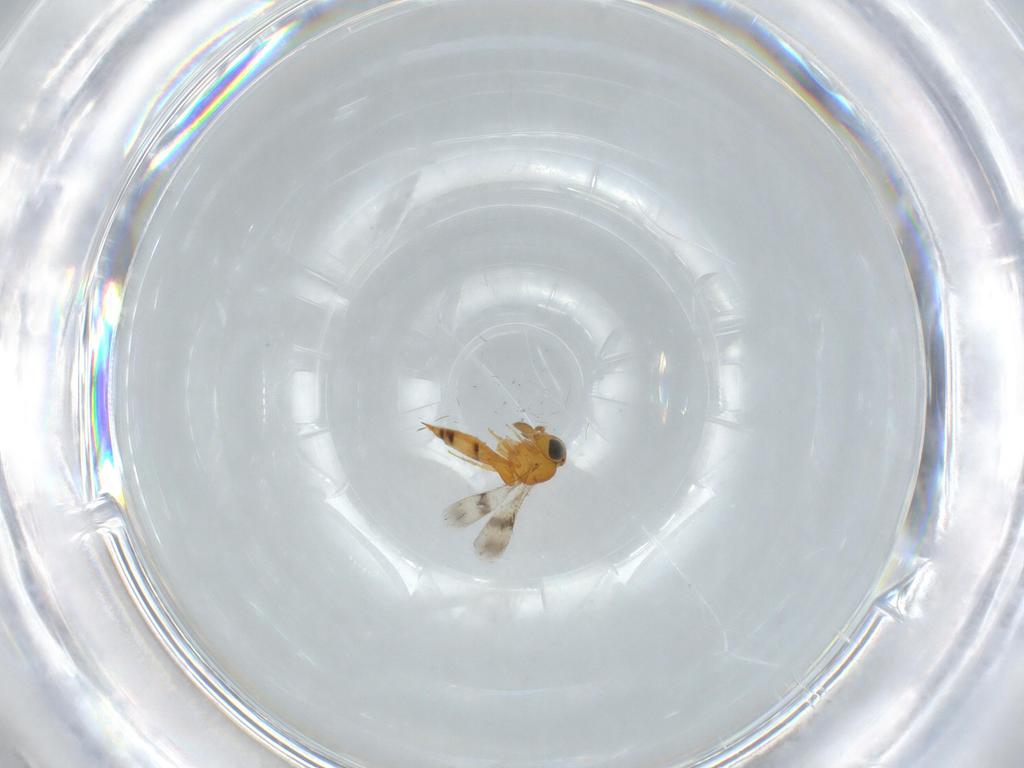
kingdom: Animalia
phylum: Arthropoda
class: Insecta
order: Hymenoptera
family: Scelionidae
